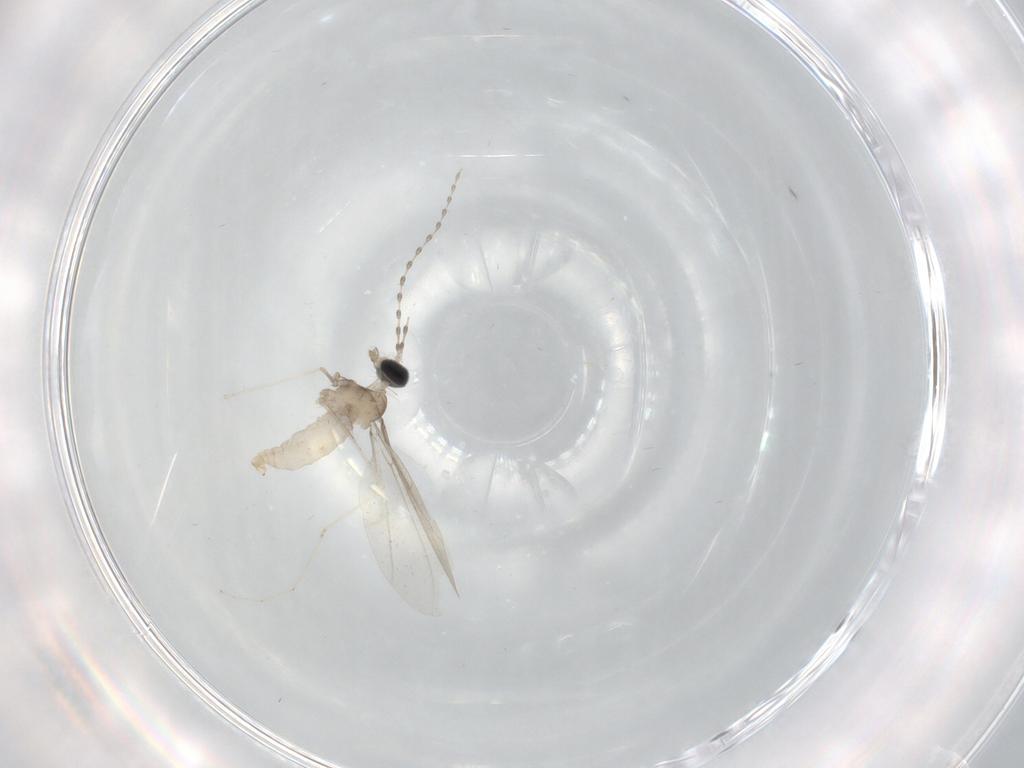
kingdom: Animalia
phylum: Arthropoda
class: Insecta
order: Diptera
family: Cecidomyiidae
